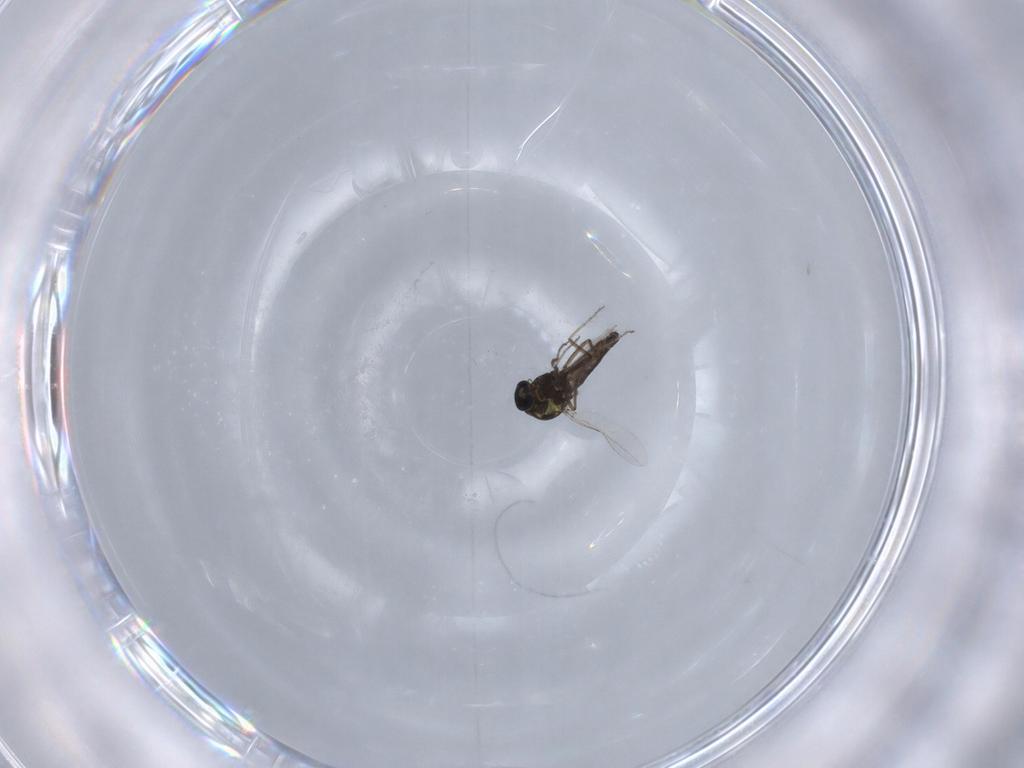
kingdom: Animalia
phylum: Arthropoda
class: Insecta
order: Diptera
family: Ceratopogonidae
